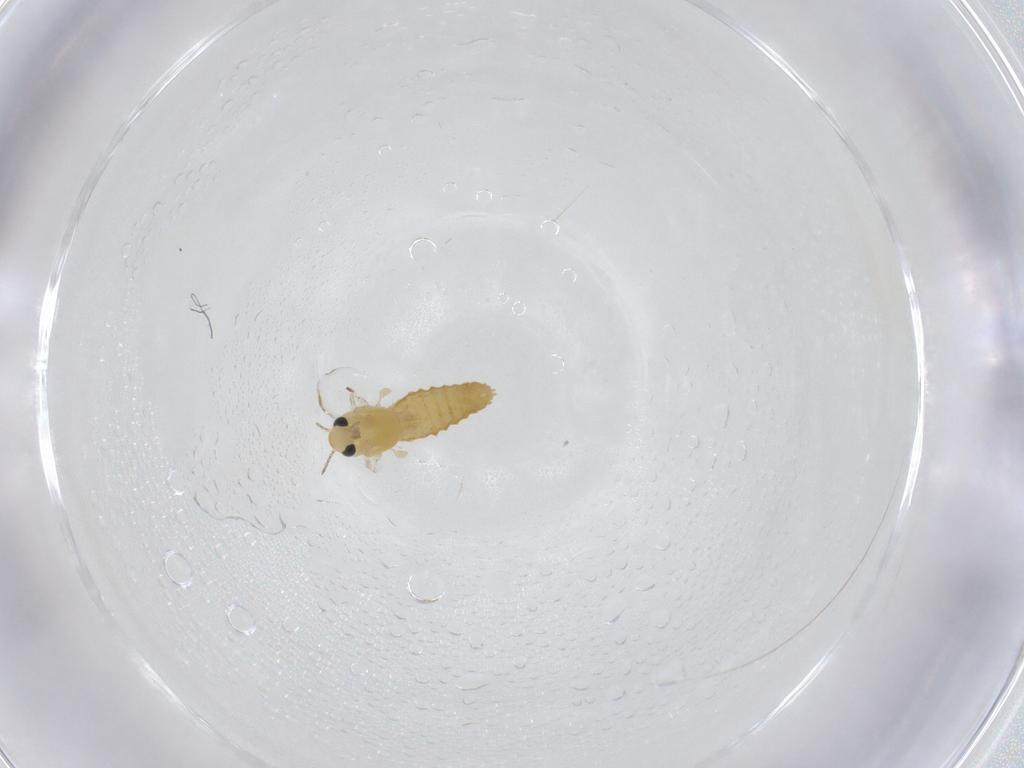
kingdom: Animalia
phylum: Arthropoda
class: Insecta
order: Diptera
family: Chironomidae
